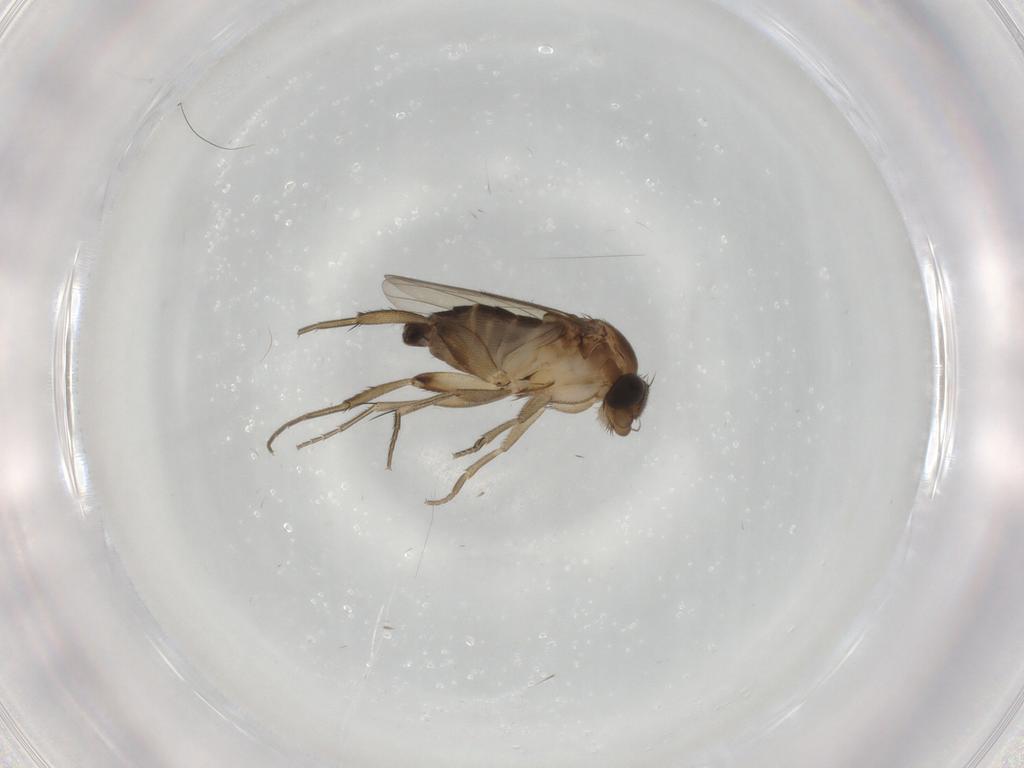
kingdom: Animalia
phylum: Arthropoda
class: Insecta
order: Diptera
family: Phoridae
